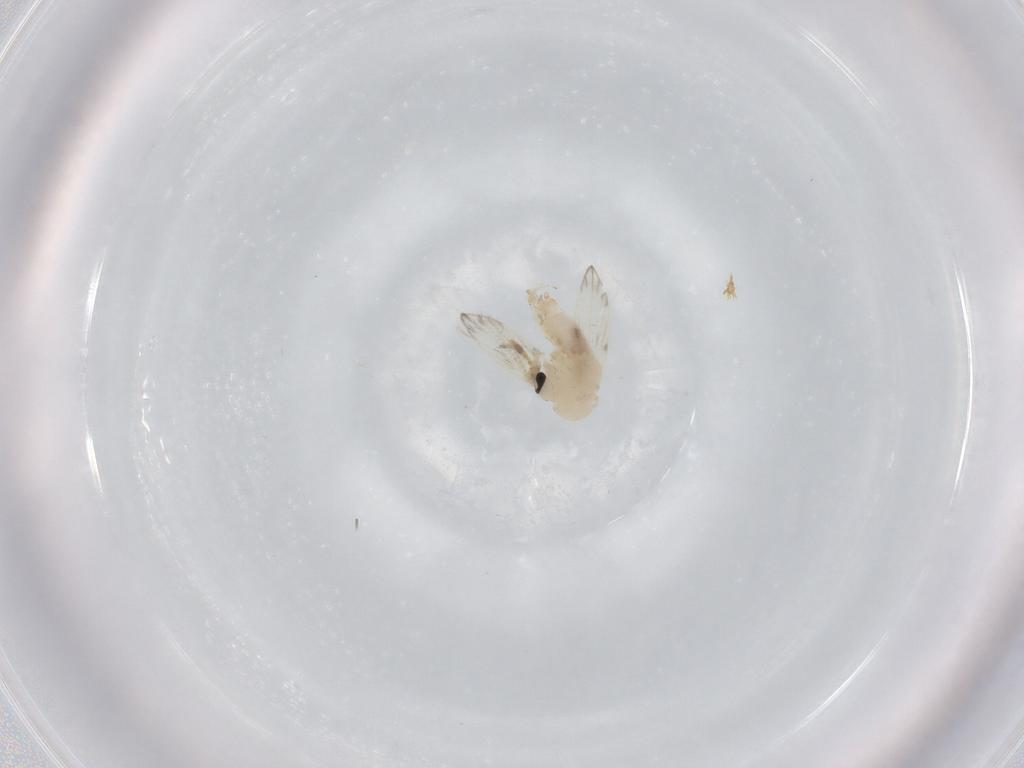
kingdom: Animalia
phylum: Arthropoda
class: Insecta
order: Diptera
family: Psychodidae
